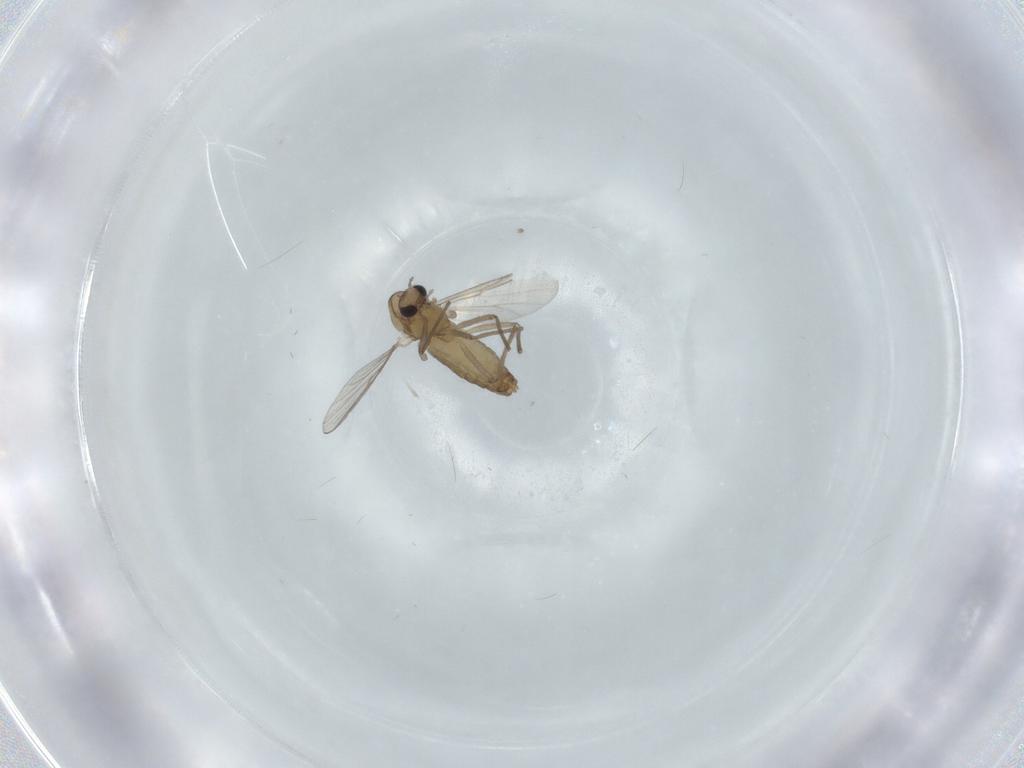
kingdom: Animalia
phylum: Arthropoda
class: Insecta
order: Diptera
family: Chironomidae
